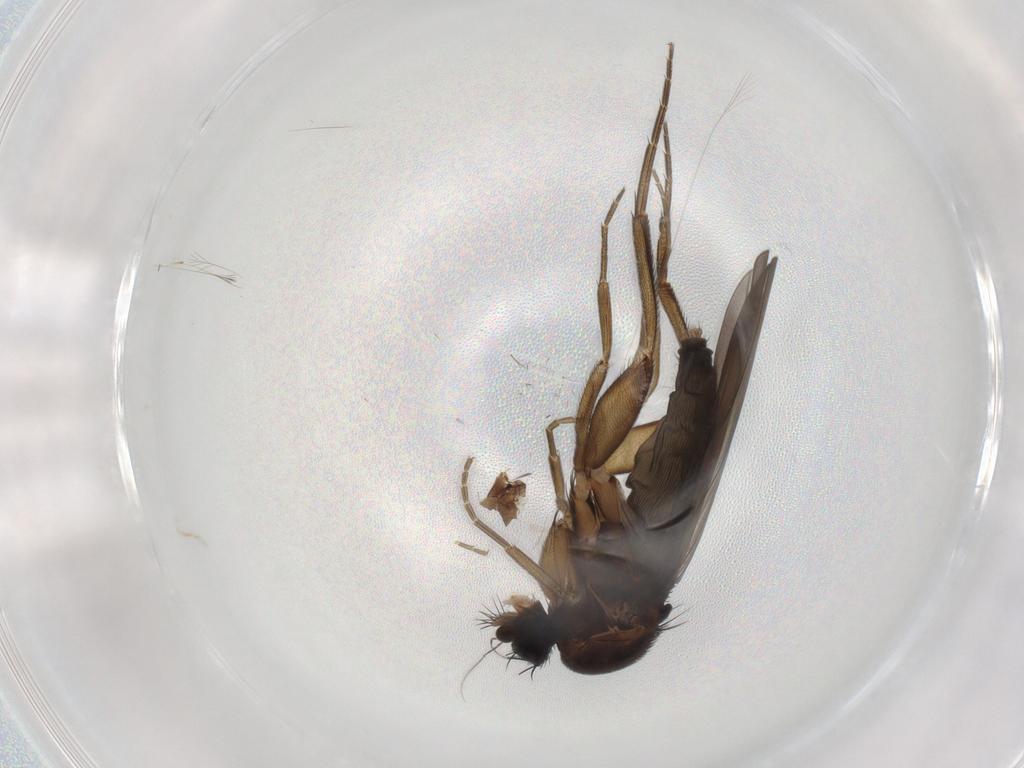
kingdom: Animalia
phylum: Arthropoda
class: Insecta
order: Diptera
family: Phoridae
